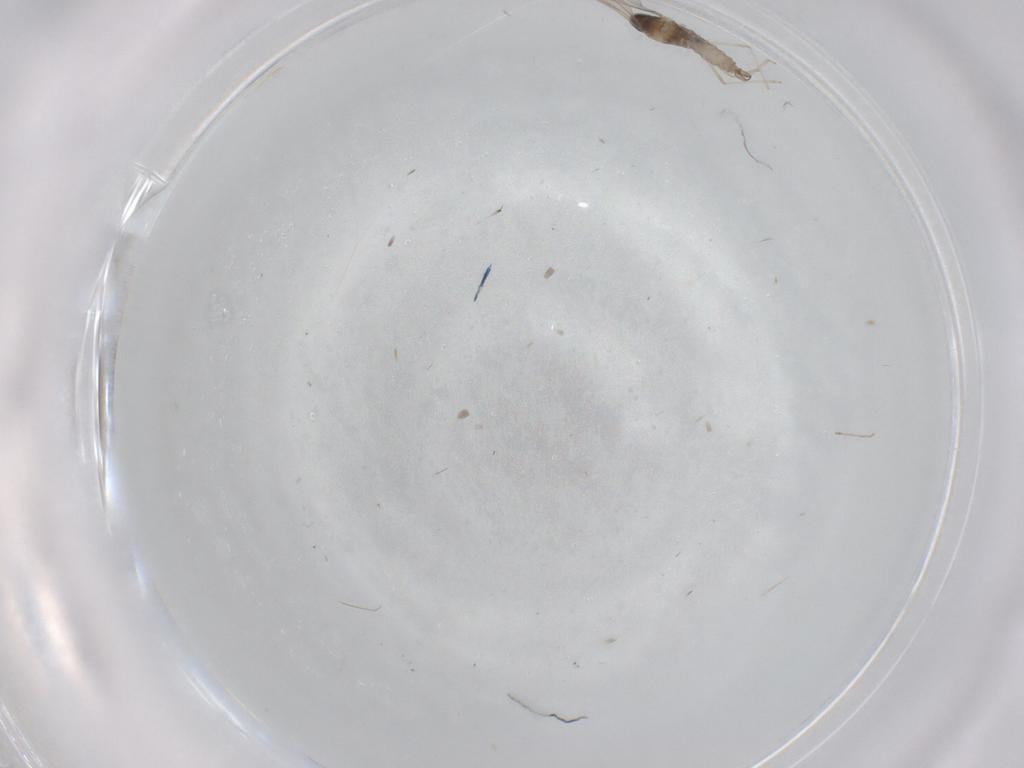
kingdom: Animalia
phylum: Arthropoda
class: Insecta
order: Diptera
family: Cecidomyiidae
